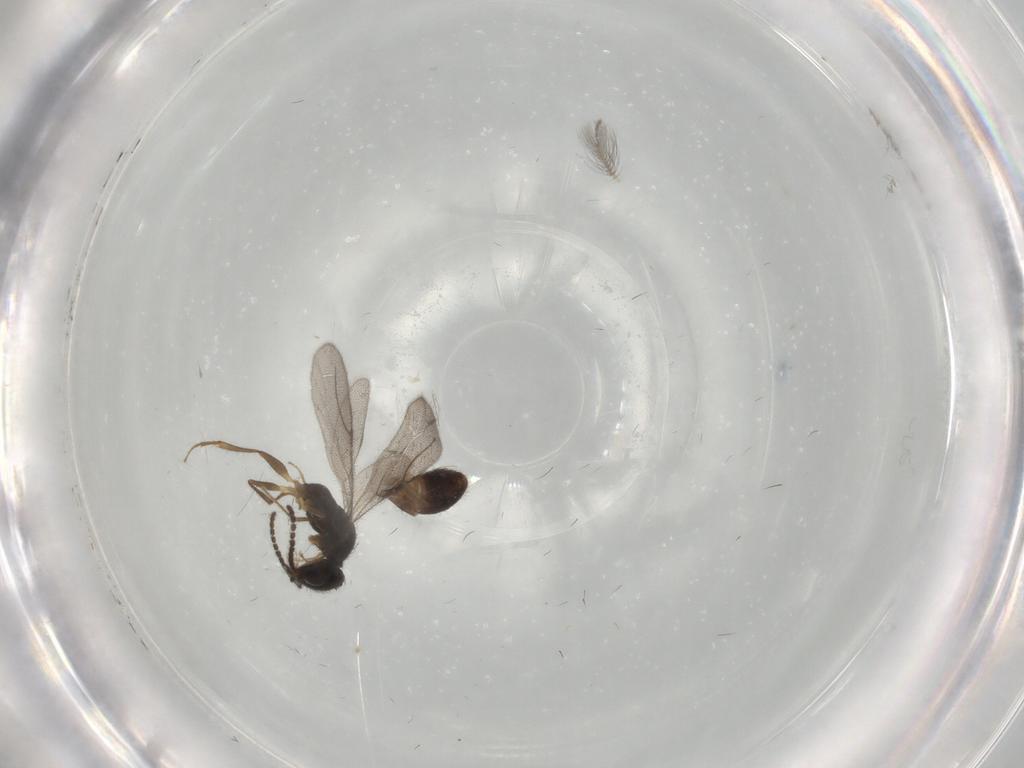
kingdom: Animalia
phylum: Arthropoda
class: Insecta
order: Hymenoptera
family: Bethylidae
